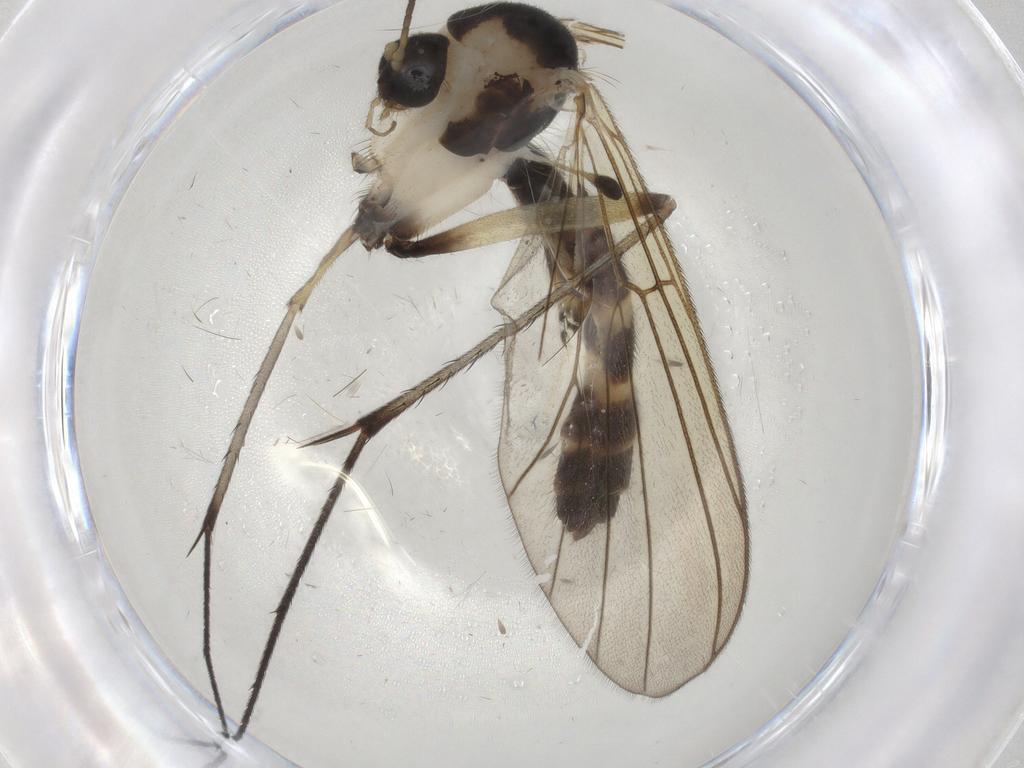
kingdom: Animalia
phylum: Arthropoda
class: Insecta
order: Diptera
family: Mycetophilidae
